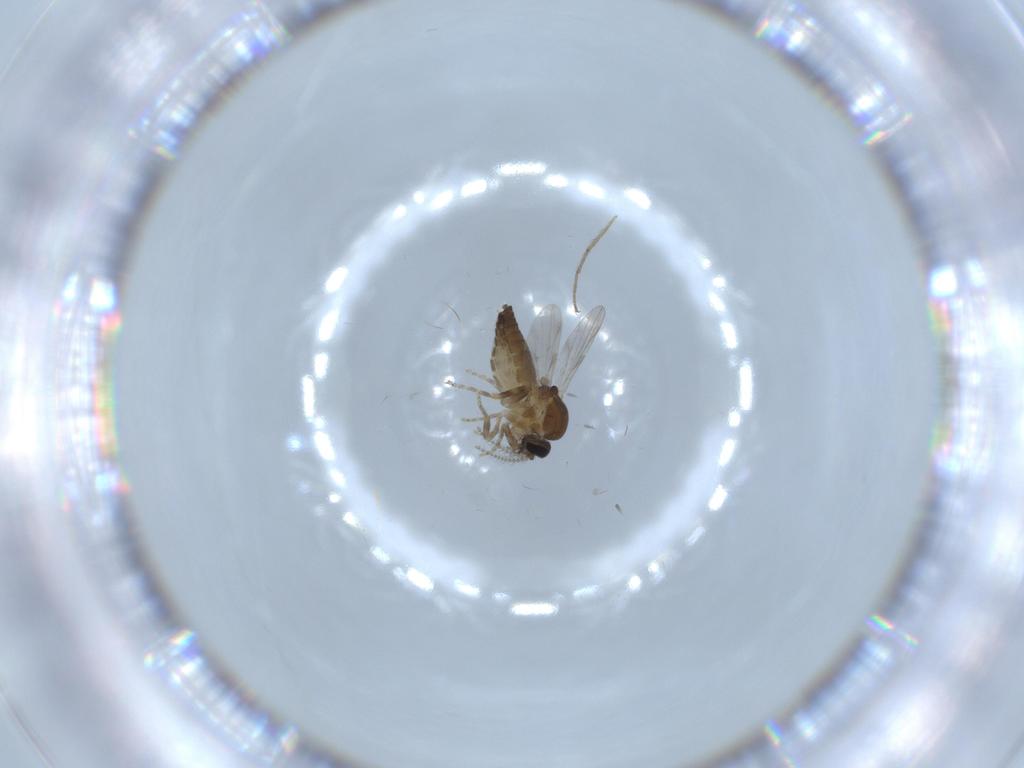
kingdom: Animalia
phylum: Arthropoda
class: Insecta
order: Diptera
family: Ceratopogonidae
